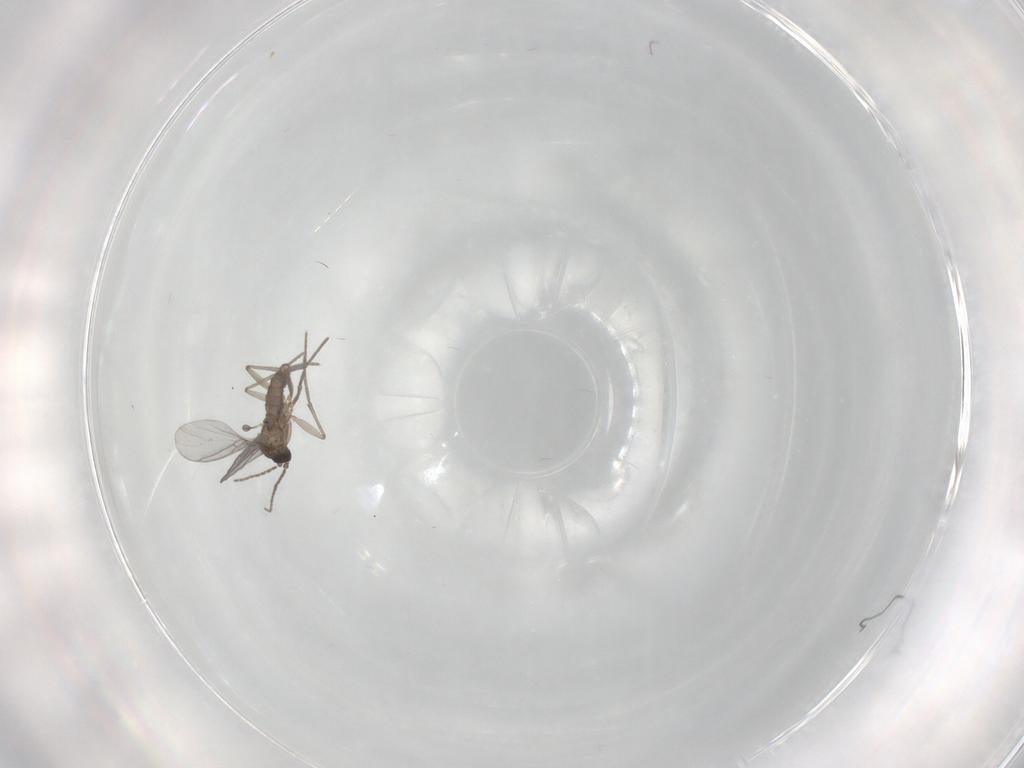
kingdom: Animalia
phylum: Arthropoda
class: Insecta
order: Diptera
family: Sciaridae
